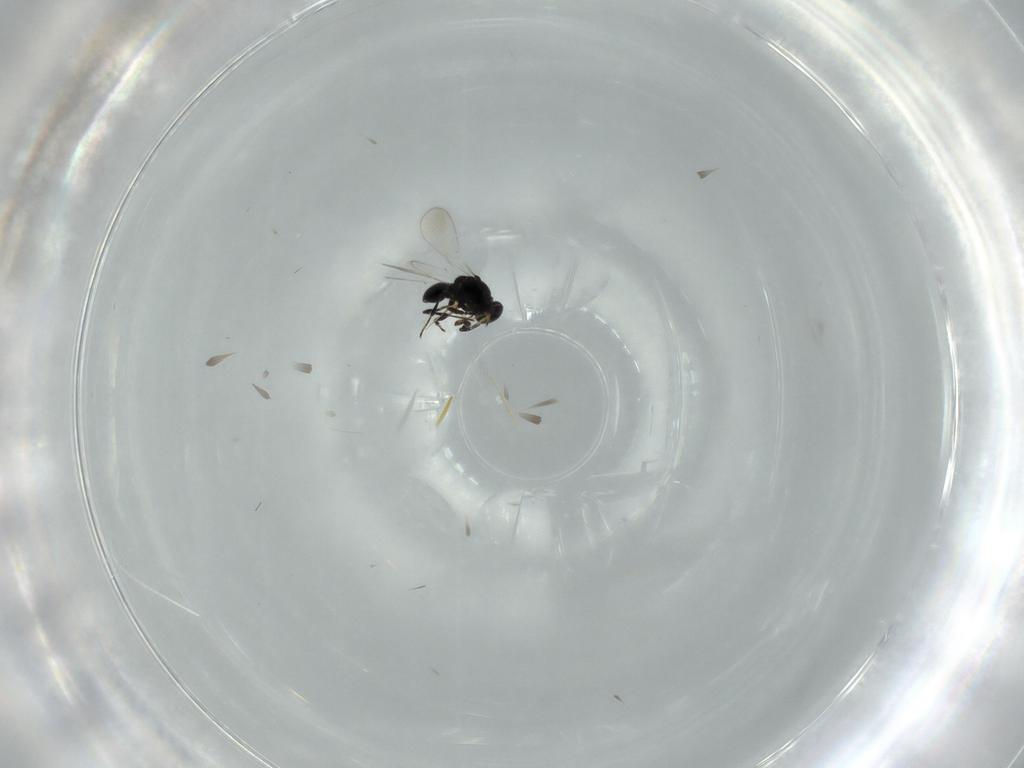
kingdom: Animalia
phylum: Arthropoda
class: Insecta
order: Hymenoptera
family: Platygastridae
